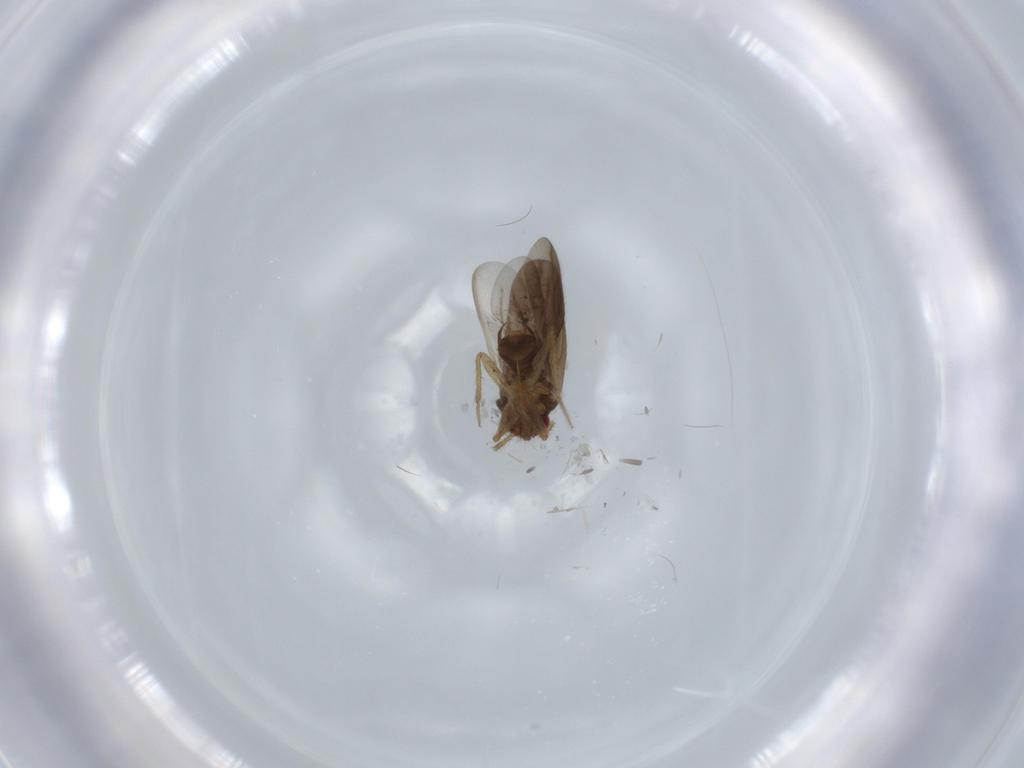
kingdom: Animalia
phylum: Arthropoda
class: Insecta
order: Hemiptera
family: Ceratocombidae
